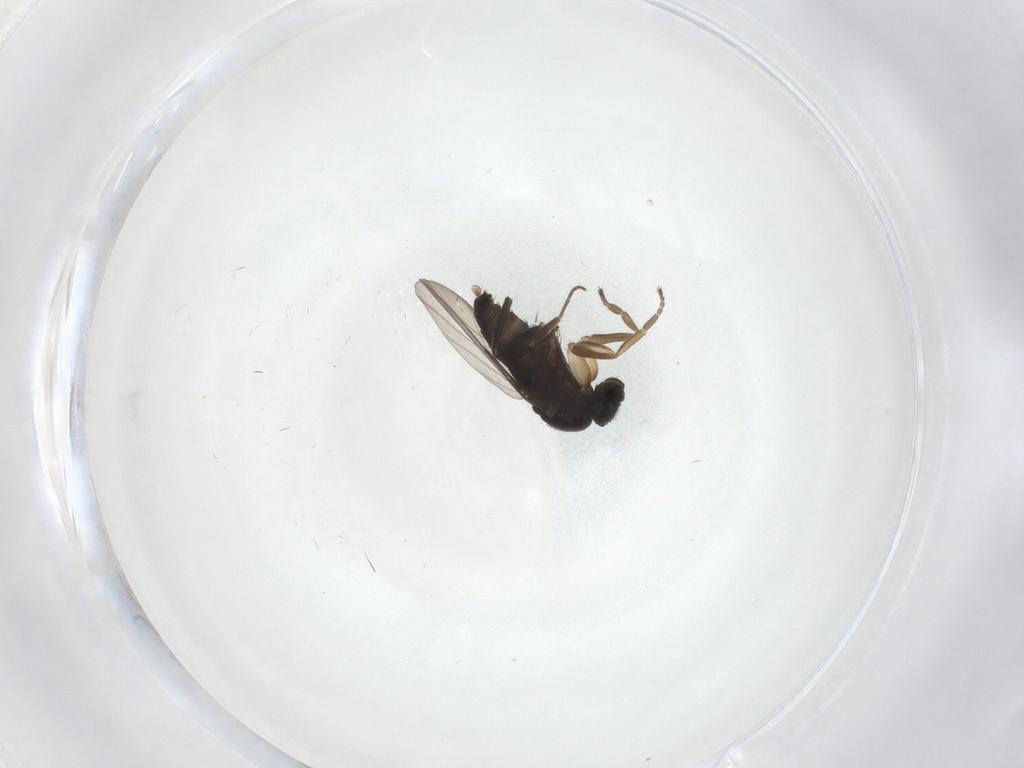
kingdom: Animalia
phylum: Arthropoda
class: Insecta
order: Diptera
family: Phoridae
